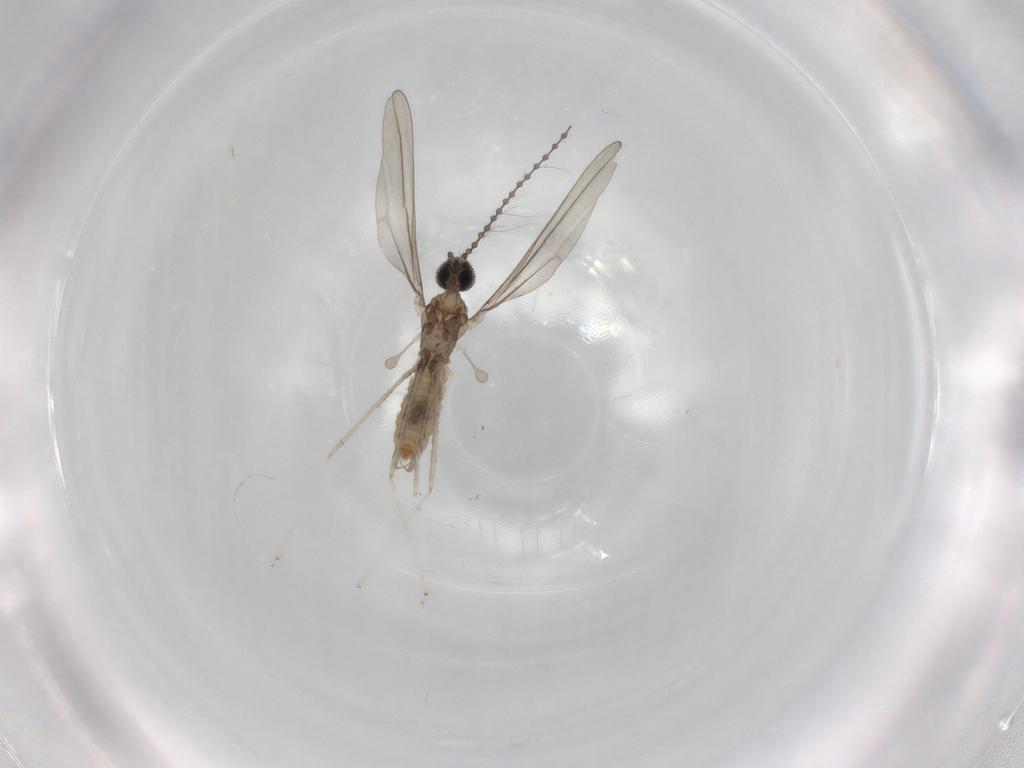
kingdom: Animalia
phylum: Arthropoda
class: Insecta
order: Diptera
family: Cecidomyiidae
